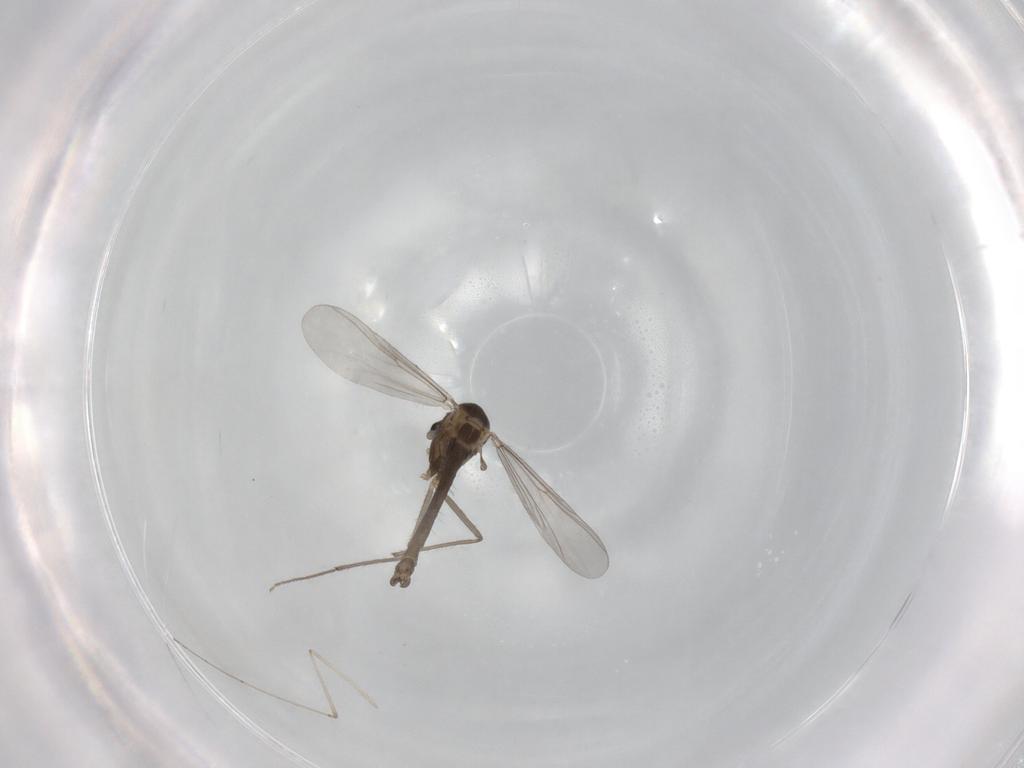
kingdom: Animalia
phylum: Arthropoda
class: Insecta
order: Diptera
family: Chironomidae
